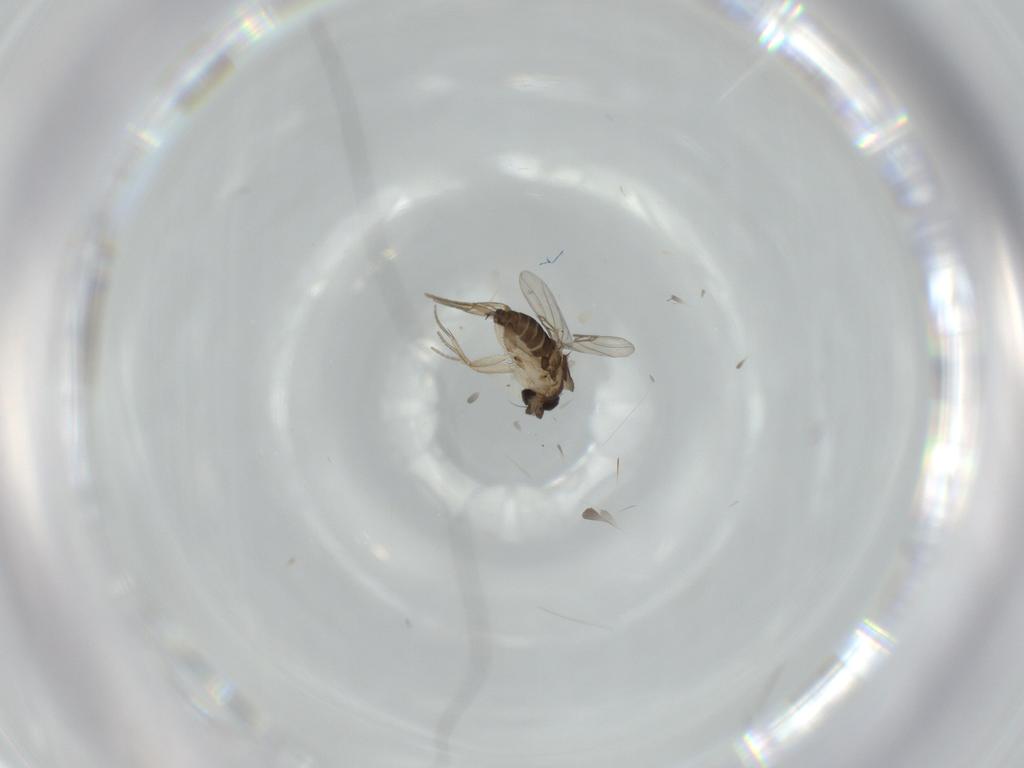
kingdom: Animalia
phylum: Arthropoda
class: Insecta
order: Diptera
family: Phoridae
